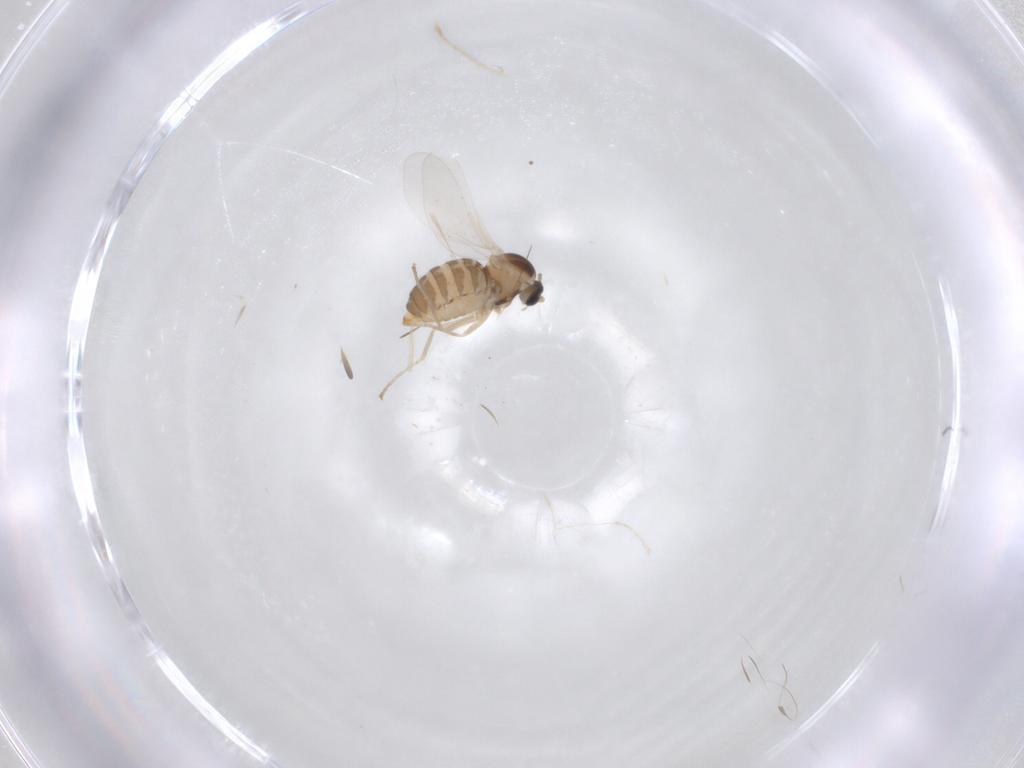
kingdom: Animalia
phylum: Arthropoda
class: Insecta
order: Diptera
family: Cecidomyiidae
